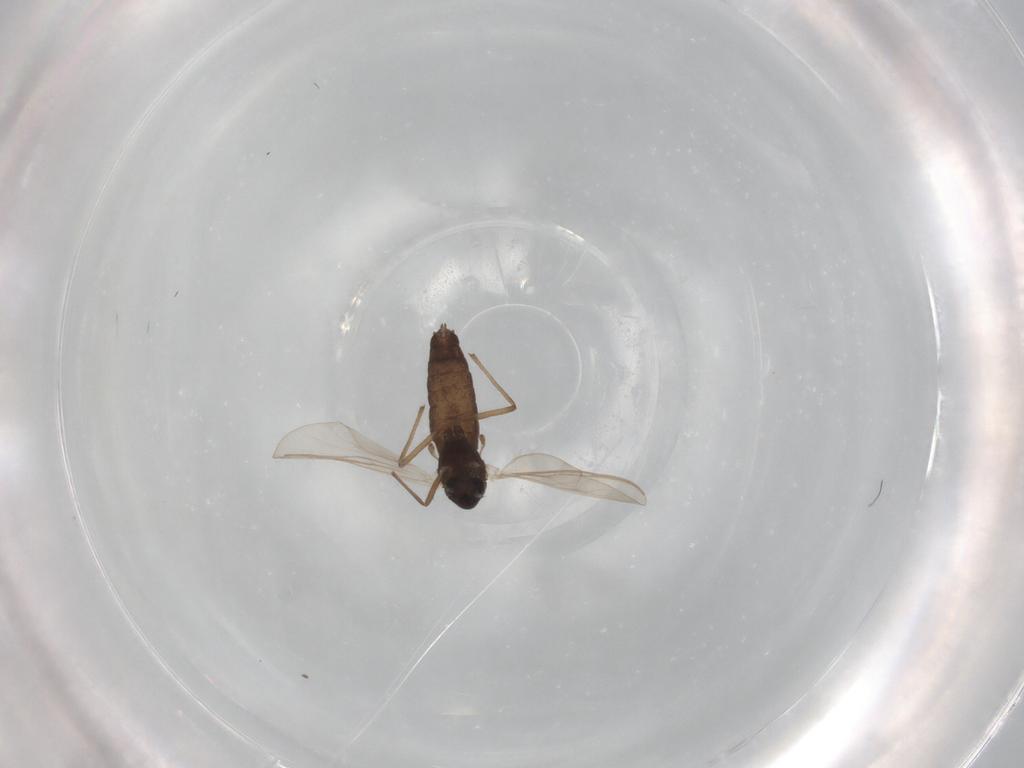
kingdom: Animalia
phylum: Arthropoda
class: Insecta
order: Diptera
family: Chironomidae
